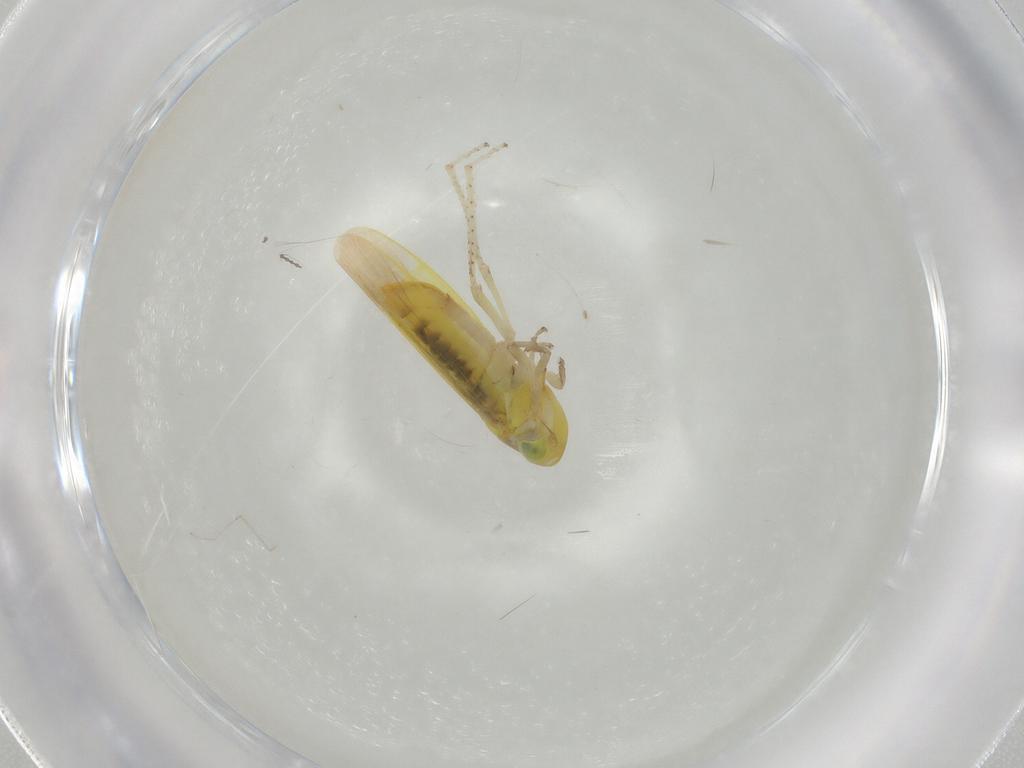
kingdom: Animalia
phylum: Arthropoda
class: Insecta
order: Hemiptera
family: Cicadellidae
